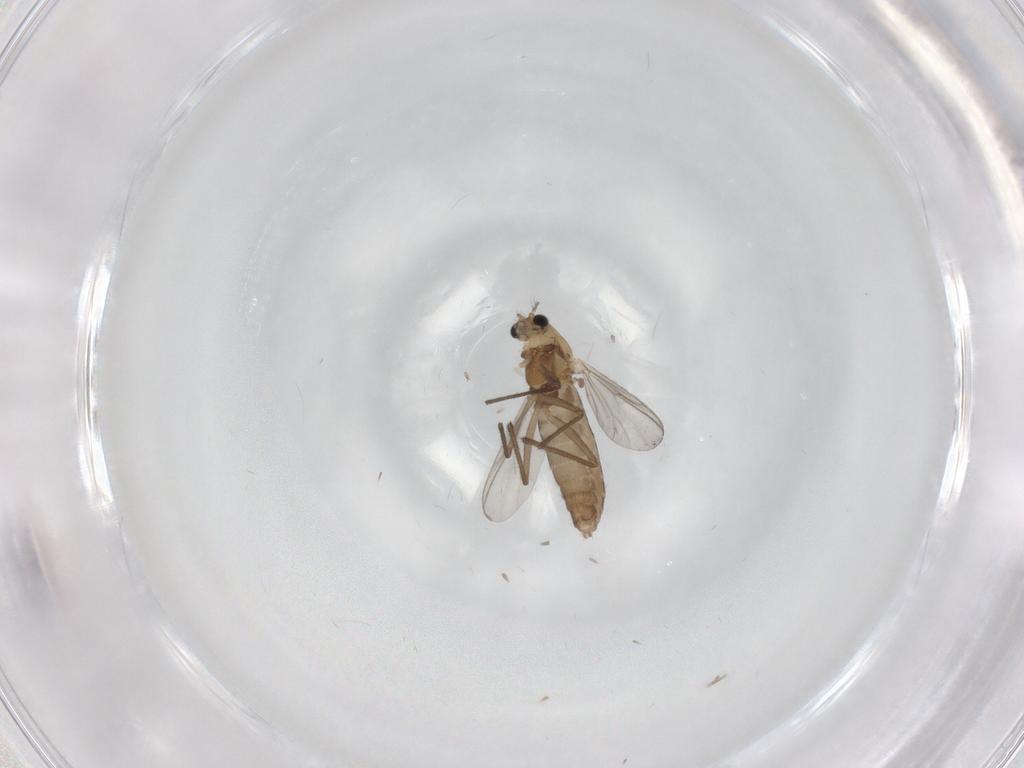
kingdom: Animalia
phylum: Arthropoda
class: Insecta
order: Diptera
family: Chironomidae
